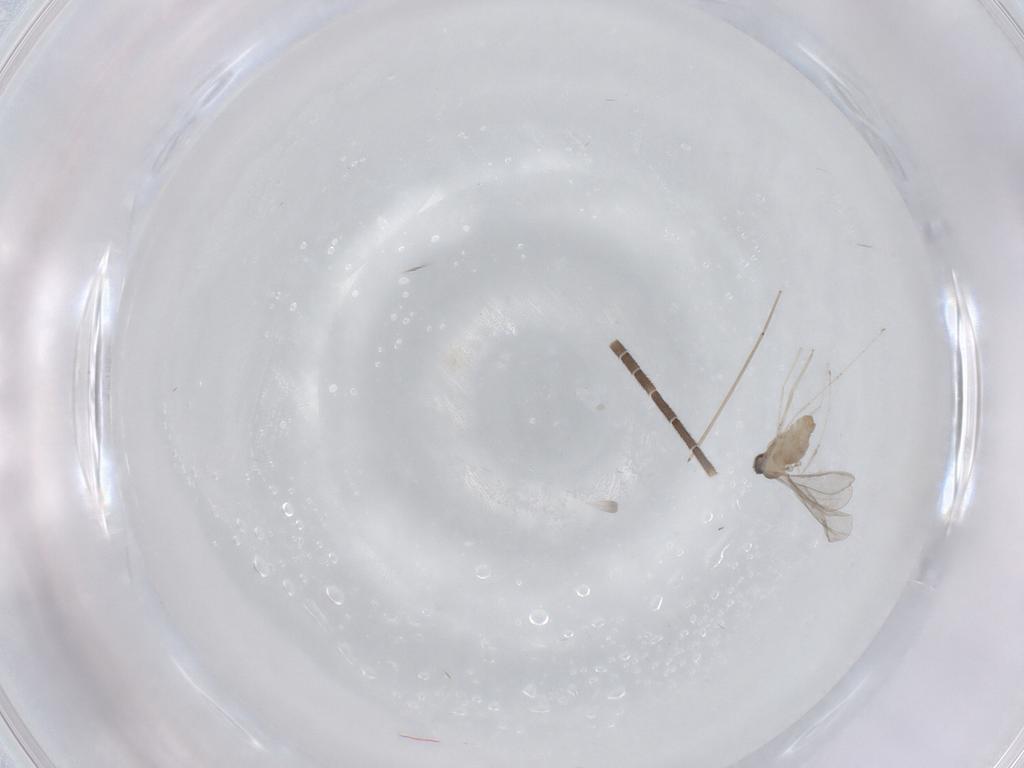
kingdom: Animalia
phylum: Arthropoda
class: Insecta
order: Diptera
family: Cecidomyiidae
